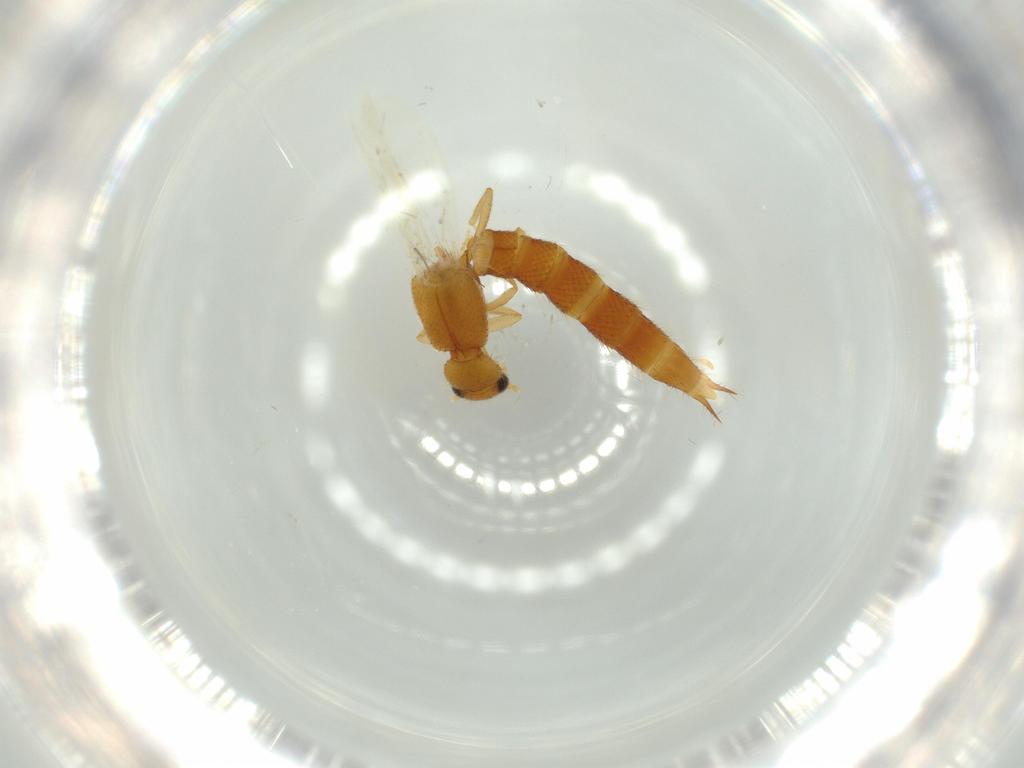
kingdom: Animalia
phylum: Arthropoda
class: Insecta
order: Coleoptera
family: Staphylinidae
